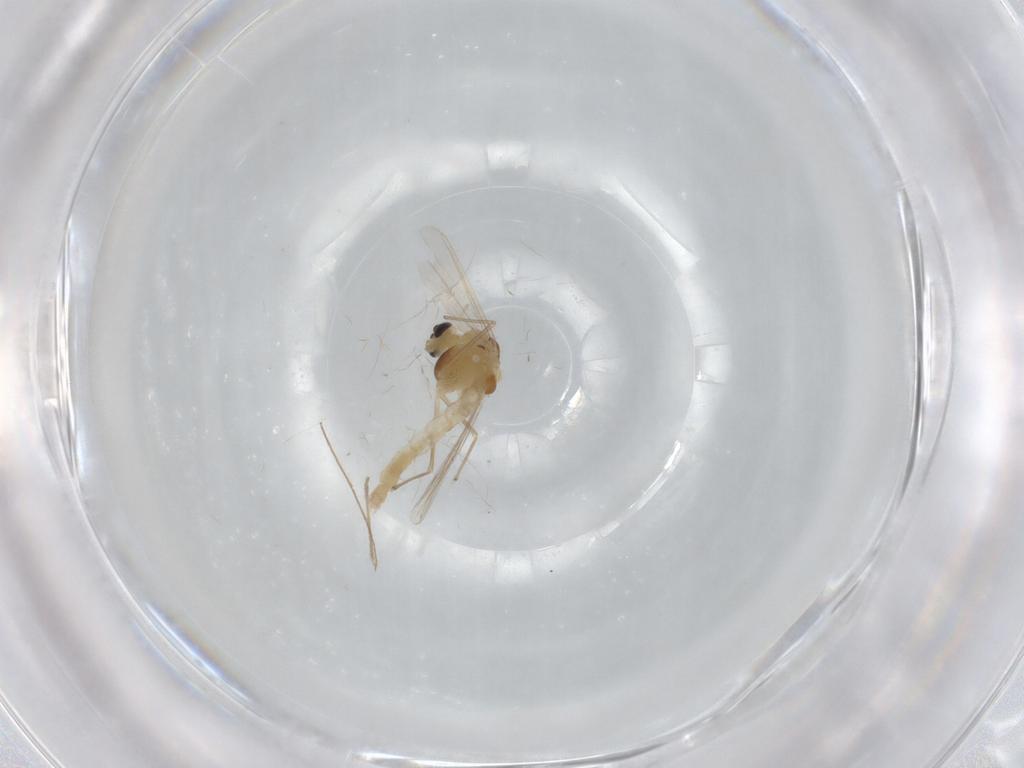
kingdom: Animalia
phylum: Arthropoda
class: Insecta
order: Diptera
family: Chironomidae
